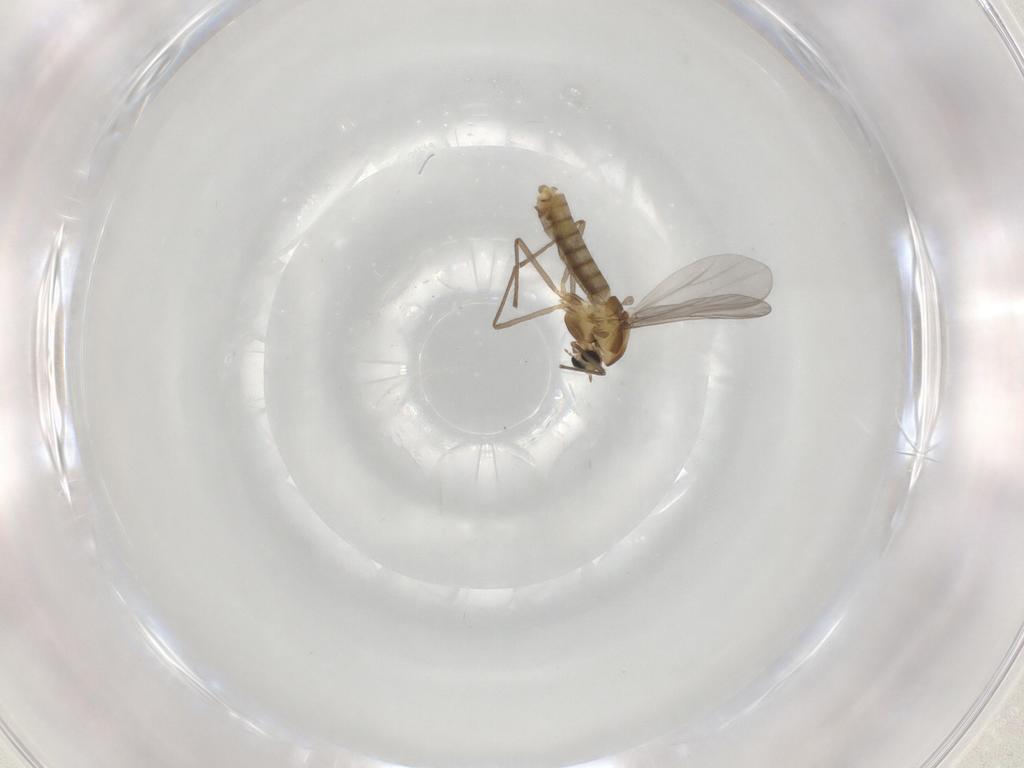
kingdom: Animalia
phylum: Arthropoda
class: Insecta
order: Diptera
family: Chironomidae
